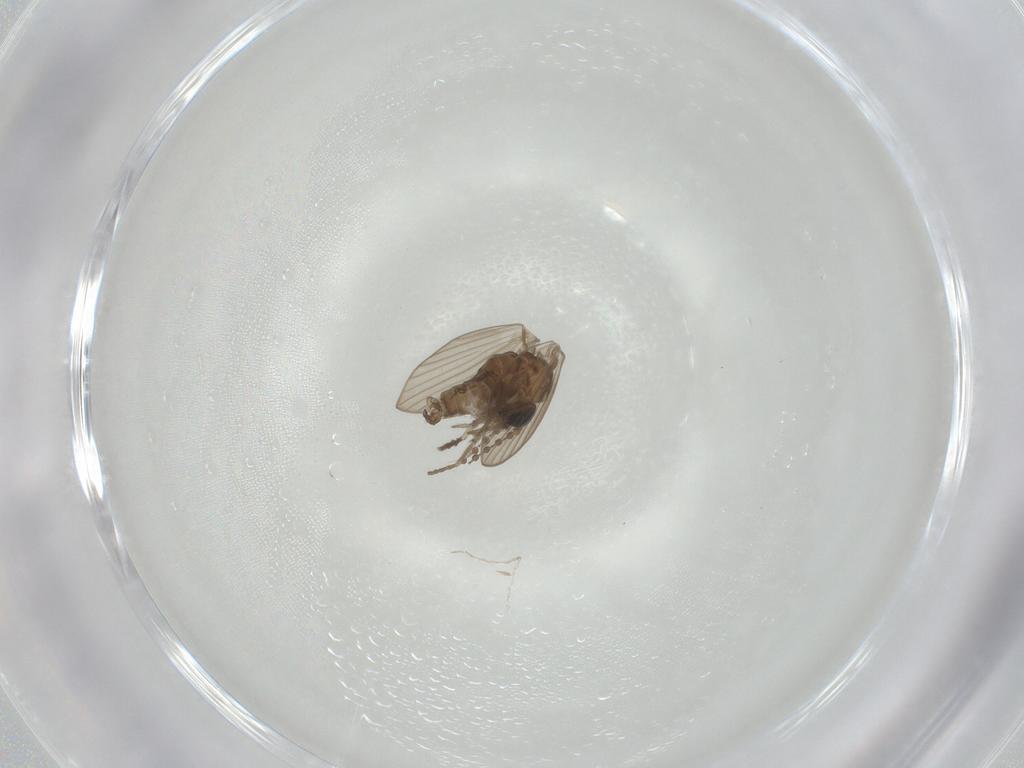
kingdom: Animalia
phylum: Arthropoda
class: Insecta
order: Diptera
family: Psychodidae
